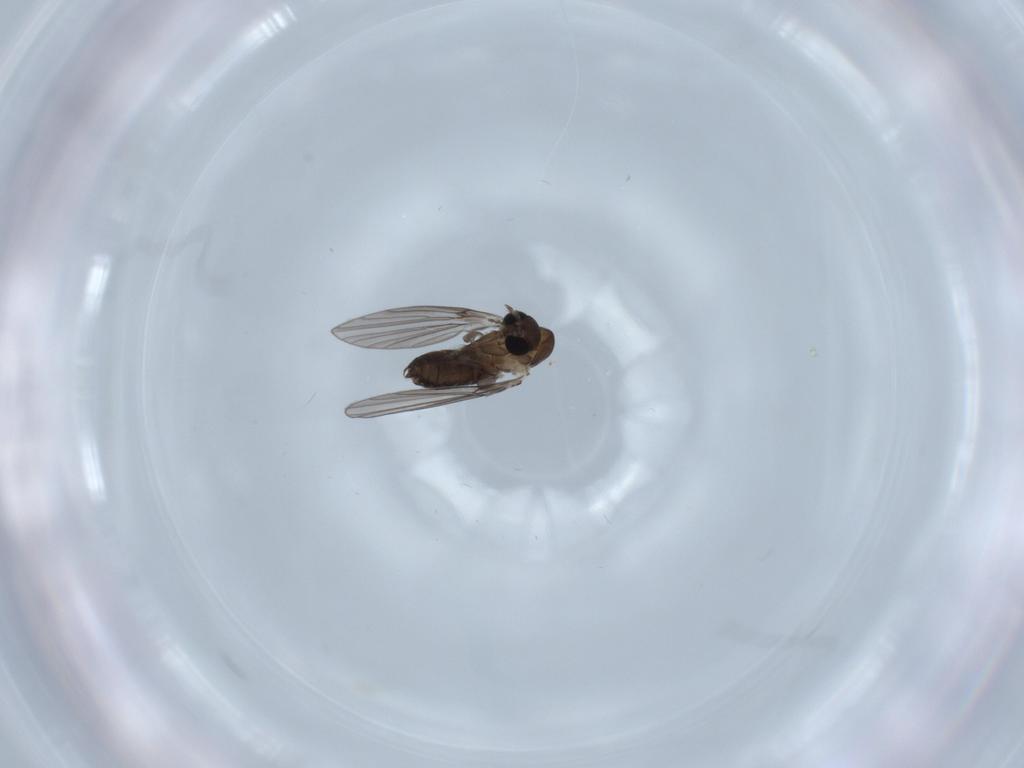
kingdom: Animalia
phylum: Arthropoda
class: Insecta
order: Diptera
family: Psychodidae
